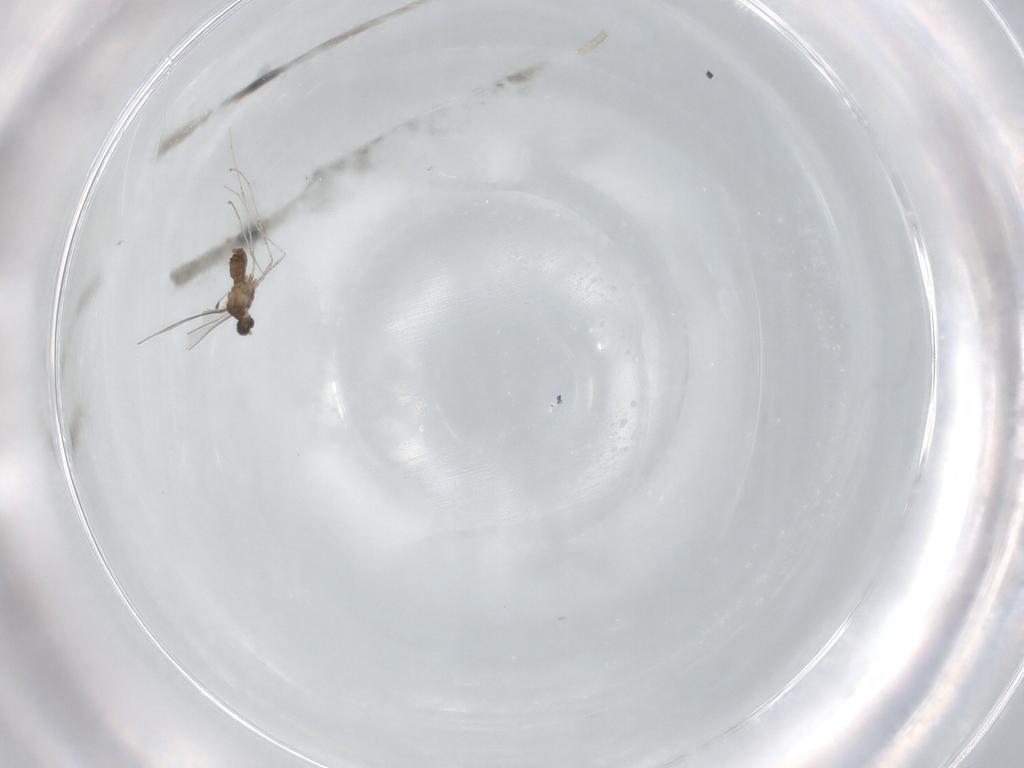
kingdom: Animalia
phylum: Arthropoda
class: Insecta
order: Diptera
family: Cecidomyiidae
